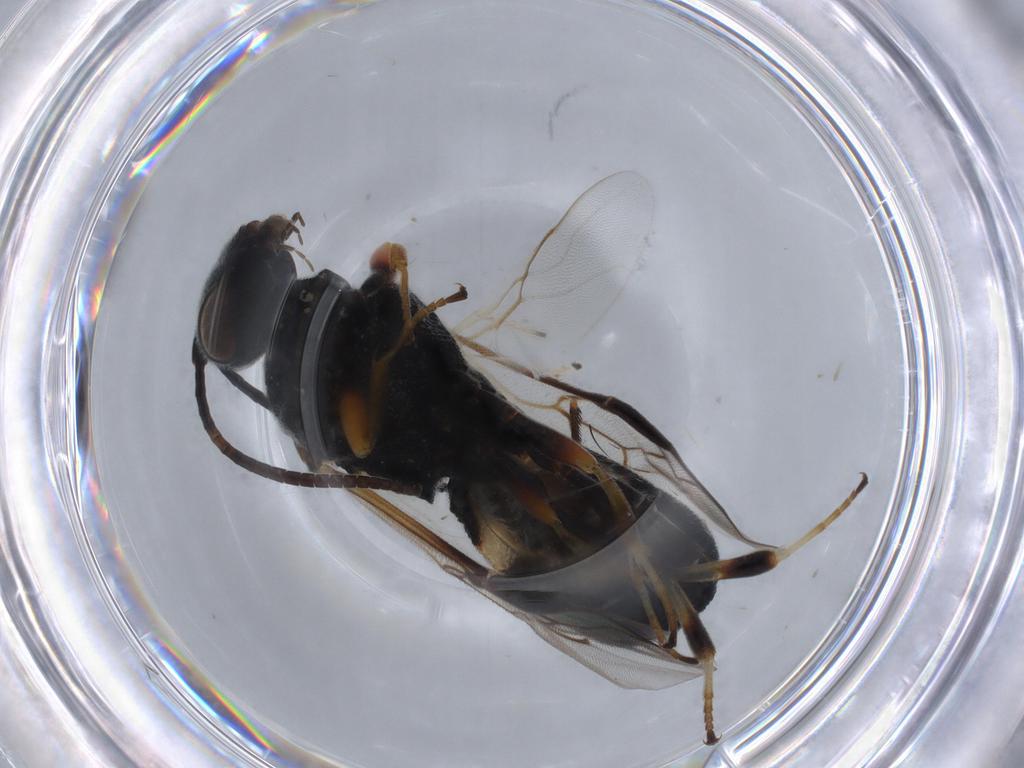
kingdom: Animalia
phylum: Arthropoda
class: Insecta
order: Hymenoptera
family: Braconidae
